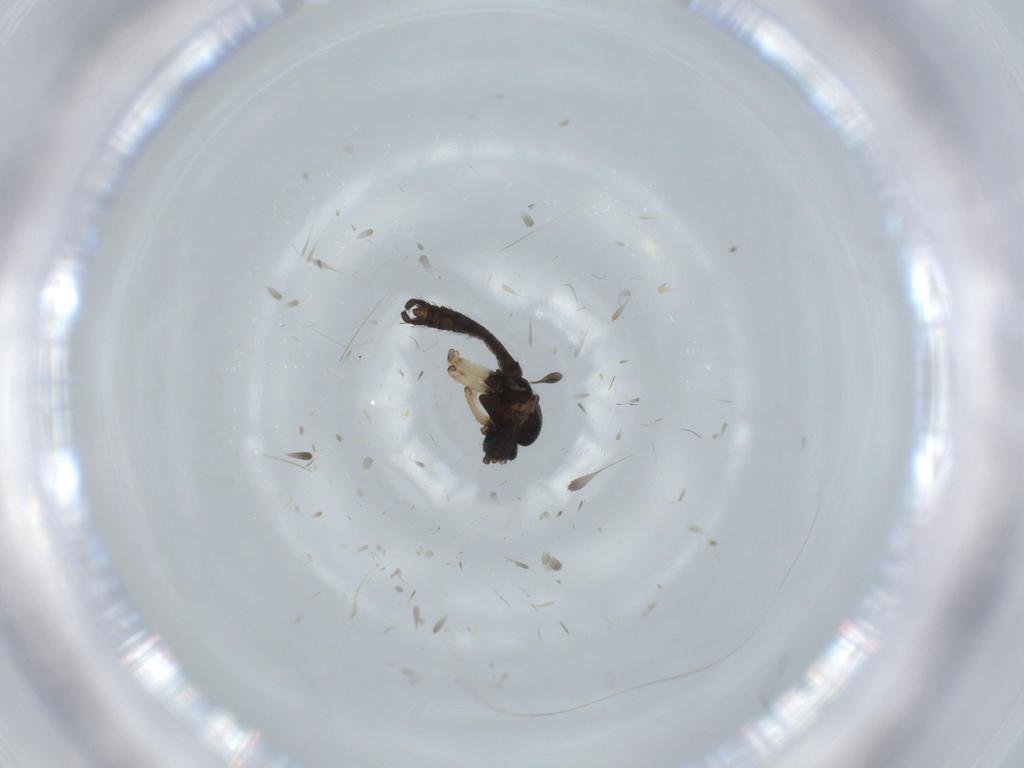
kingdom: Animalia
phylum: Arthropoda
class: Insecta
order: Diptera
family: Sciaridae
